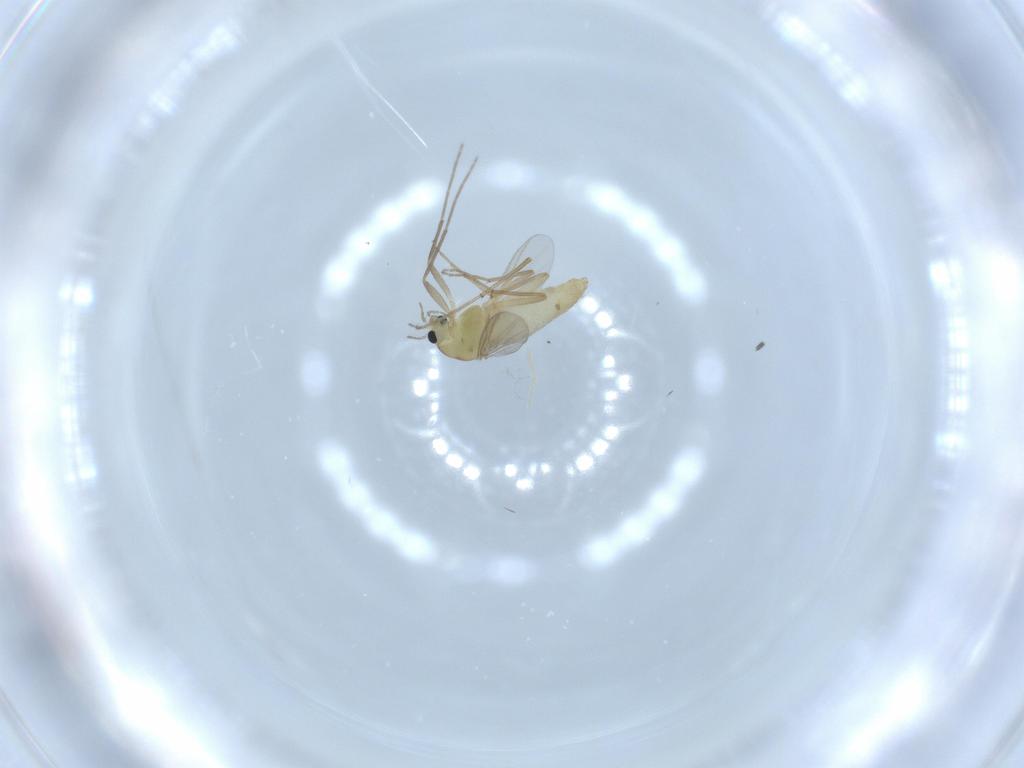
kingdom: Animalia
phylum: Arthropoda
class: Insecta
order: Diptera
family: Chironomidae
